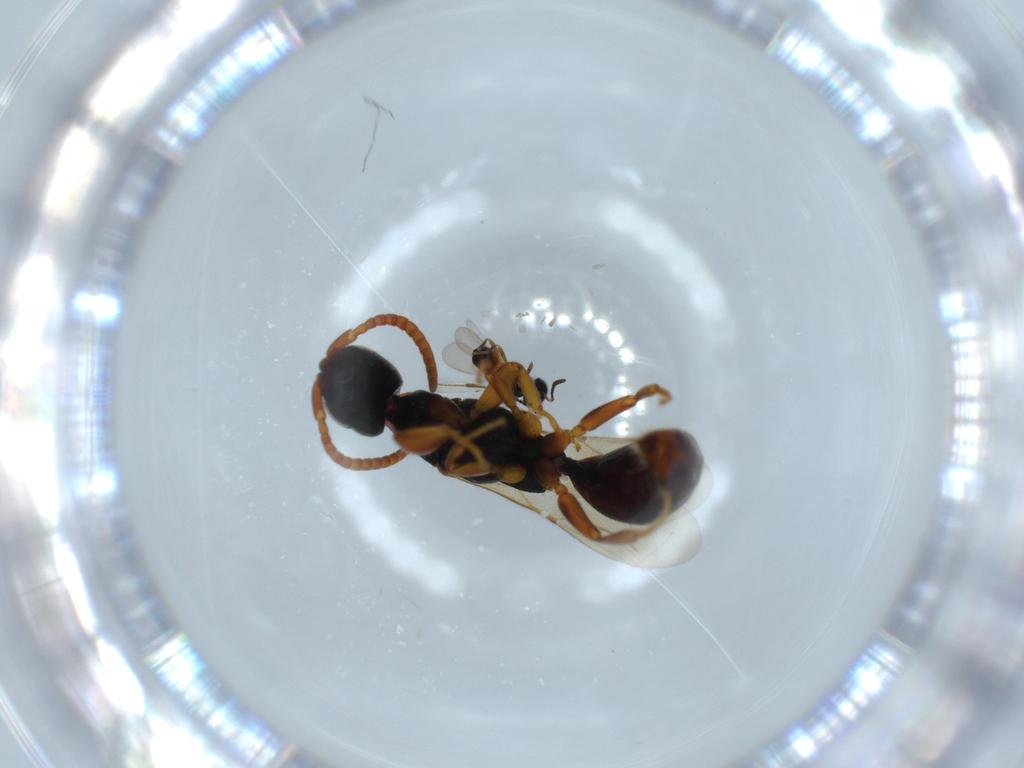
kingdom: Animalia
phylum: Arthropoda
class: Insecta
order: Hymenoptera
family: Bethylidae
